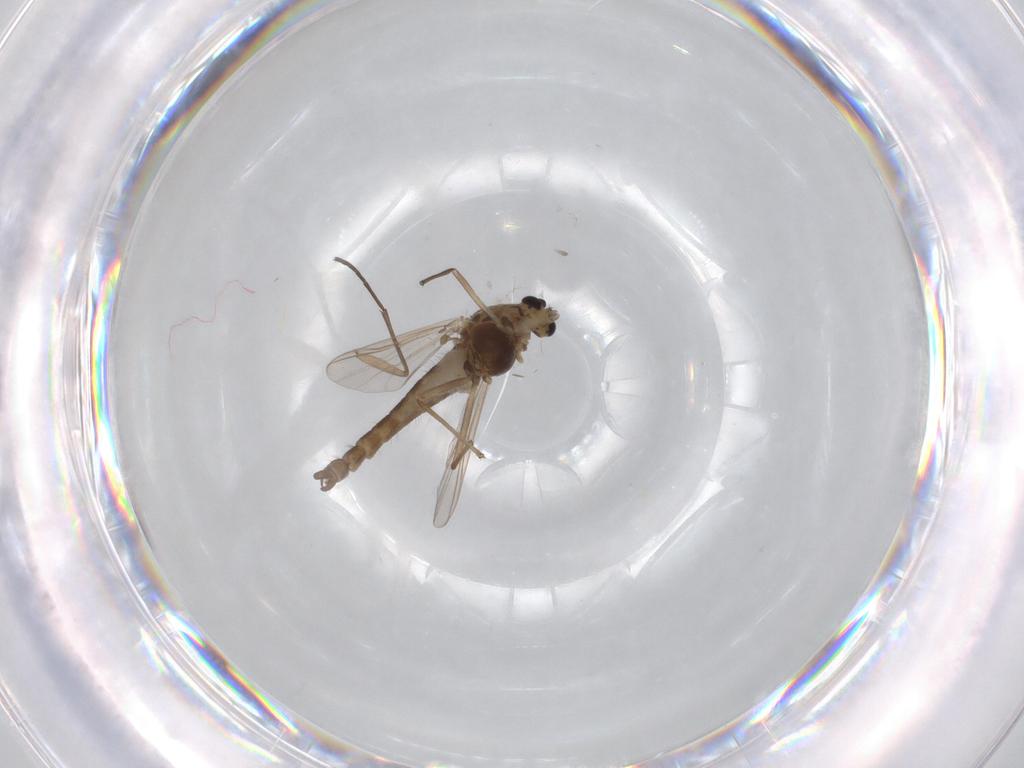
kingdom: Animalia
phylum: Arthropoda
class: Insecta
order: Diptera
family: Chironomidae
